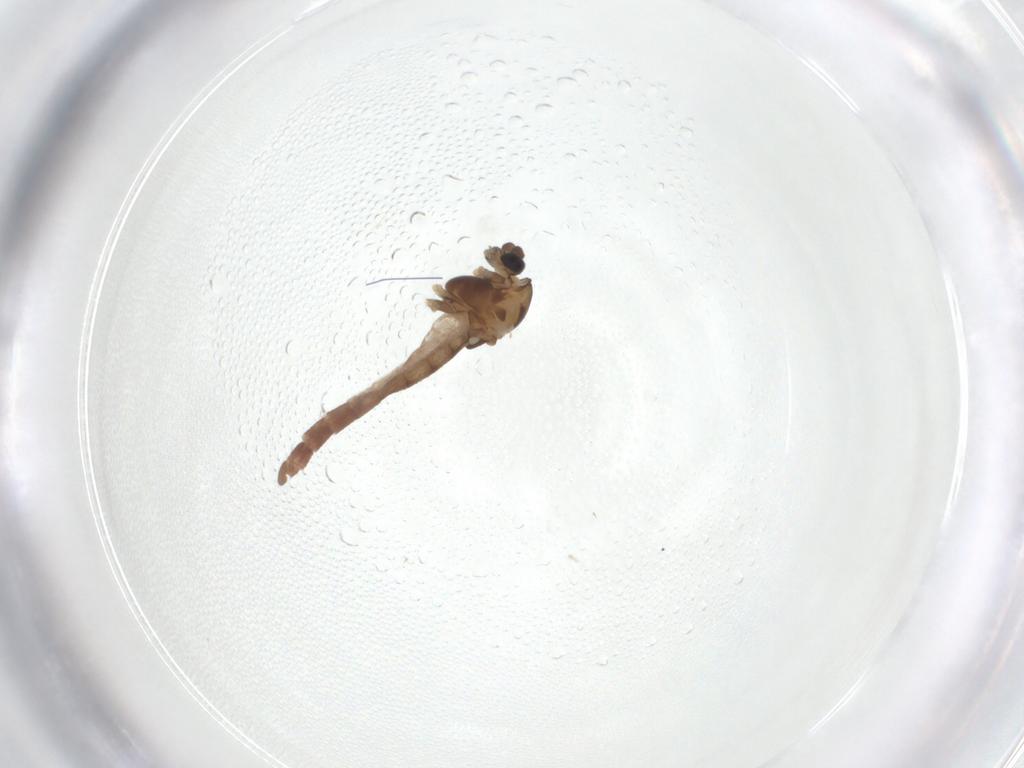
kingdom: Animalia
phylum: Arthropoda
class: Insecta
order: Diptera
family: Chironomidae
